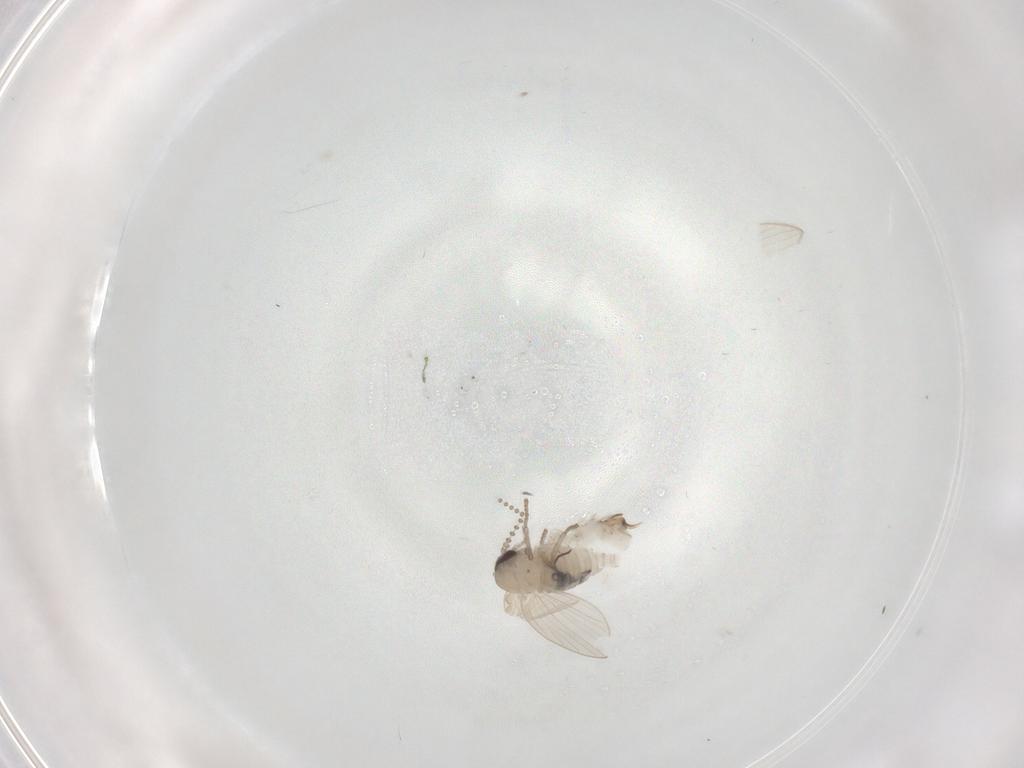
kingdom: Animalia
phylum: Arthropoda
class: Insecta
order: Diptera
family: Psychodidae
